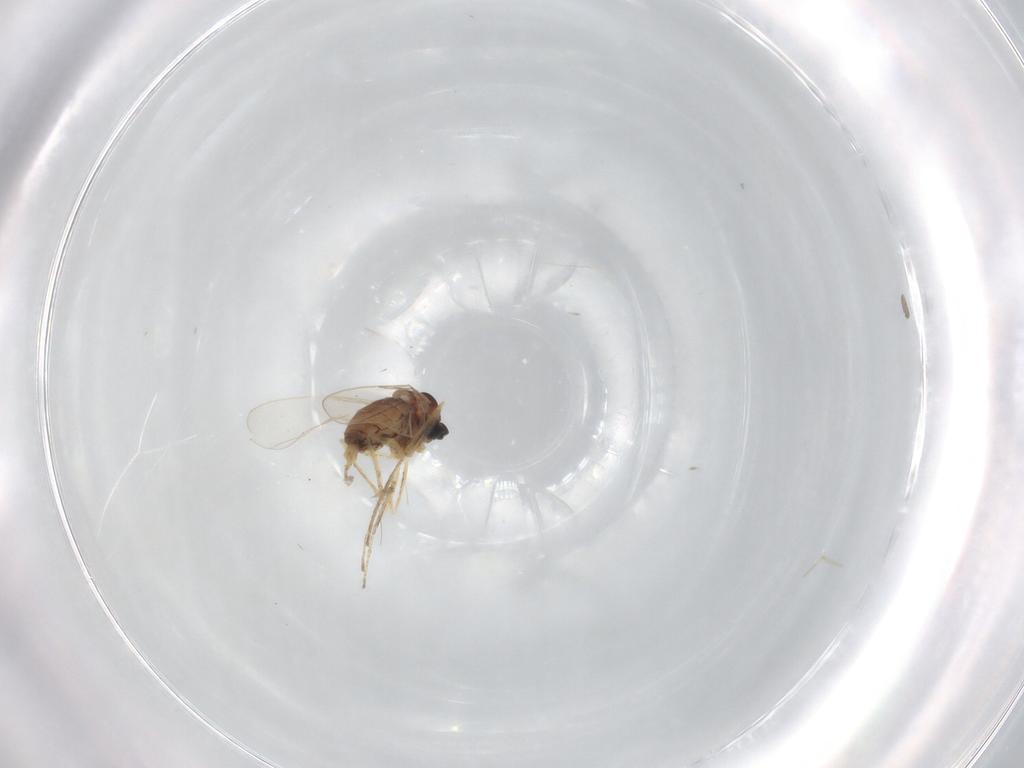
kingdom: Animalia
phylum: Arthropoda
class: Insecta
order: Diptera
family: Cecidomyiidae
